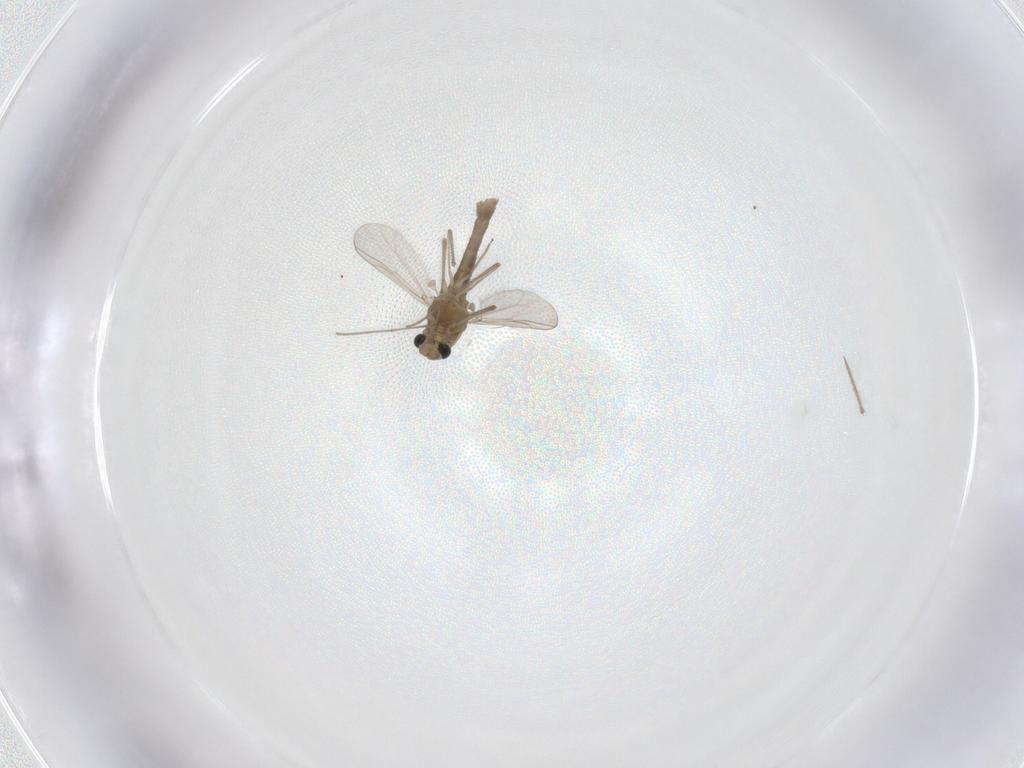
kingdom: Animalia
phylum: Arthropoda
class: Insecta
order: Diptera
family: Chironomidae
